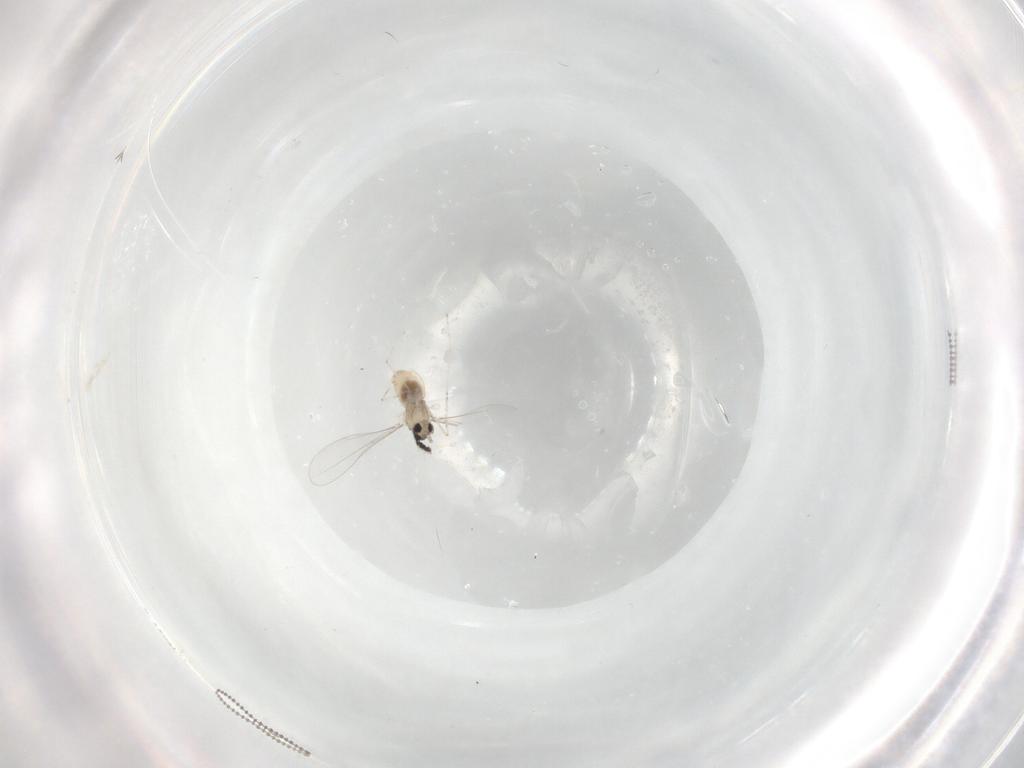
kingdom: Animalia
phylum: Arthropoda
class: Insecta
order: Diptera
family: Cecidomyiidae
